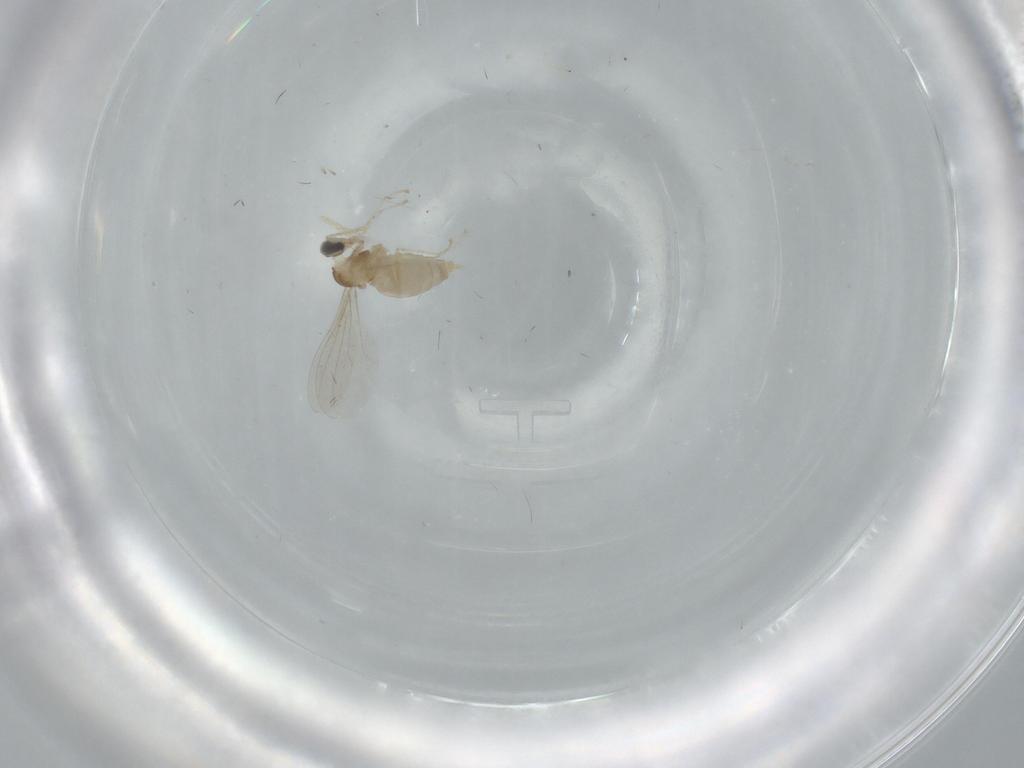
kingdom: Animalia
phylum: Arthropoda
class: Insecta
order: Diptera
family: Cecidomyiidae
